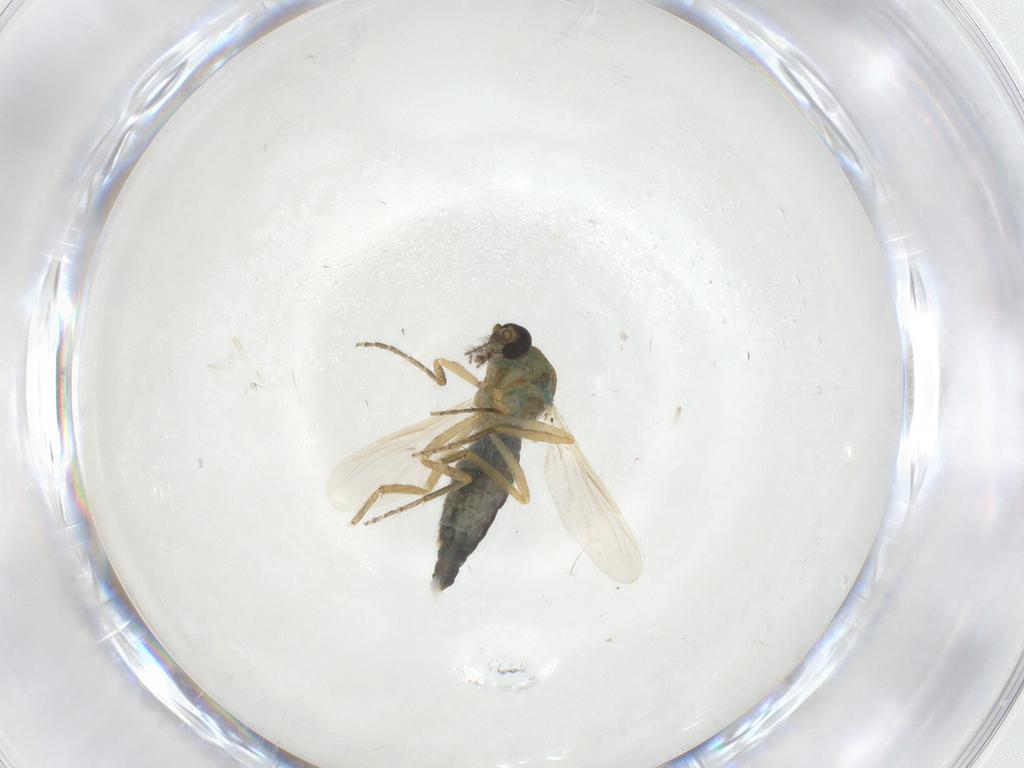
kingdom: Animalia
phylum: Arthropoda
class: Insecta
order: Diptera
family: Ceratopogonidae
